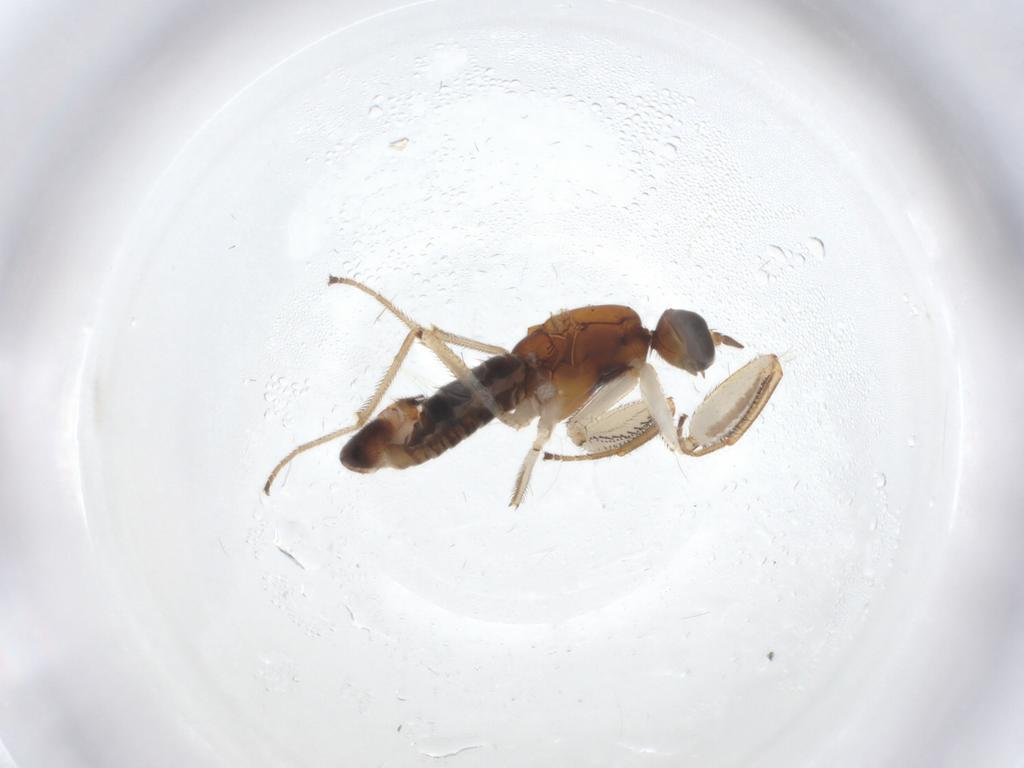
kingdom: Animalia
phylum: Arthropoda
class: Insecta
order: Diptera
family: Empididae
